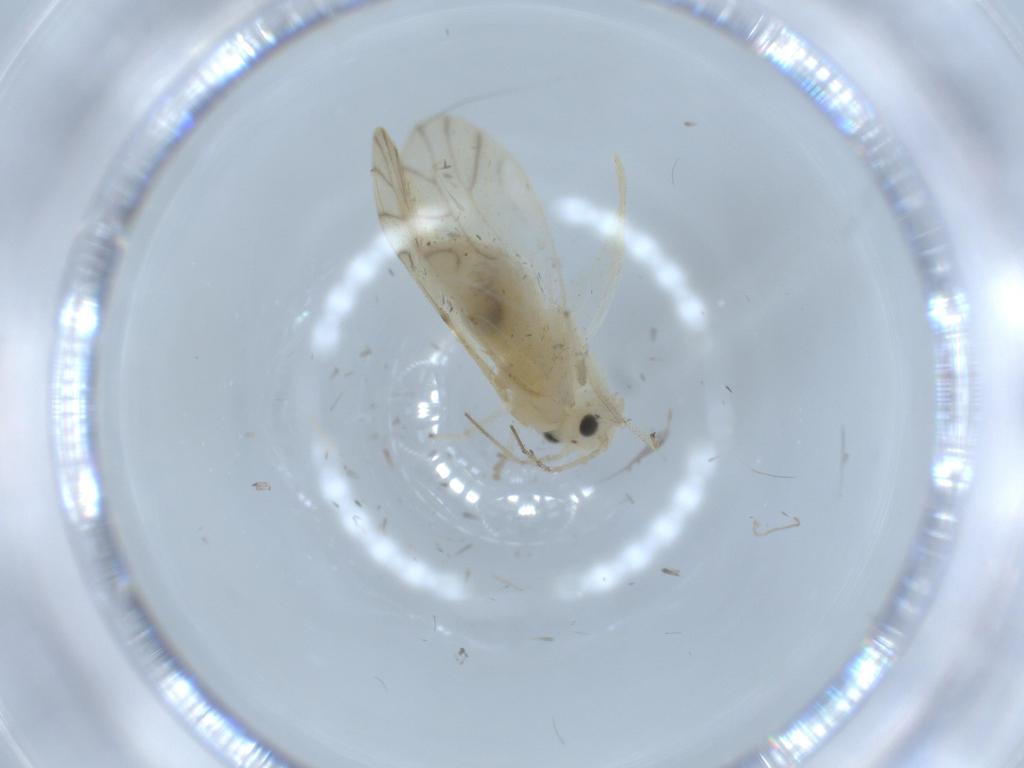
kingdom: Animalia
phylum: Arthropoda
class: Insecta
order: Psocodea
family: Caeciliusidae
